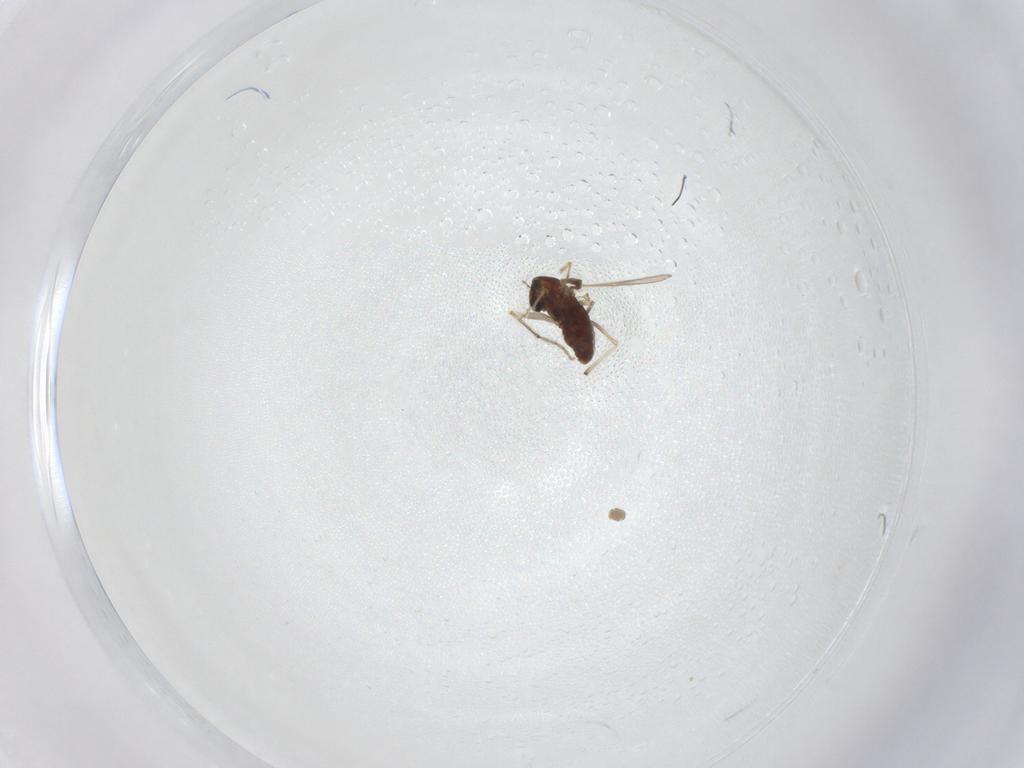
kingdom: Animalia
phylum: Arthropoda
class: Insecta
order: Diptera
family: Chironomidae
